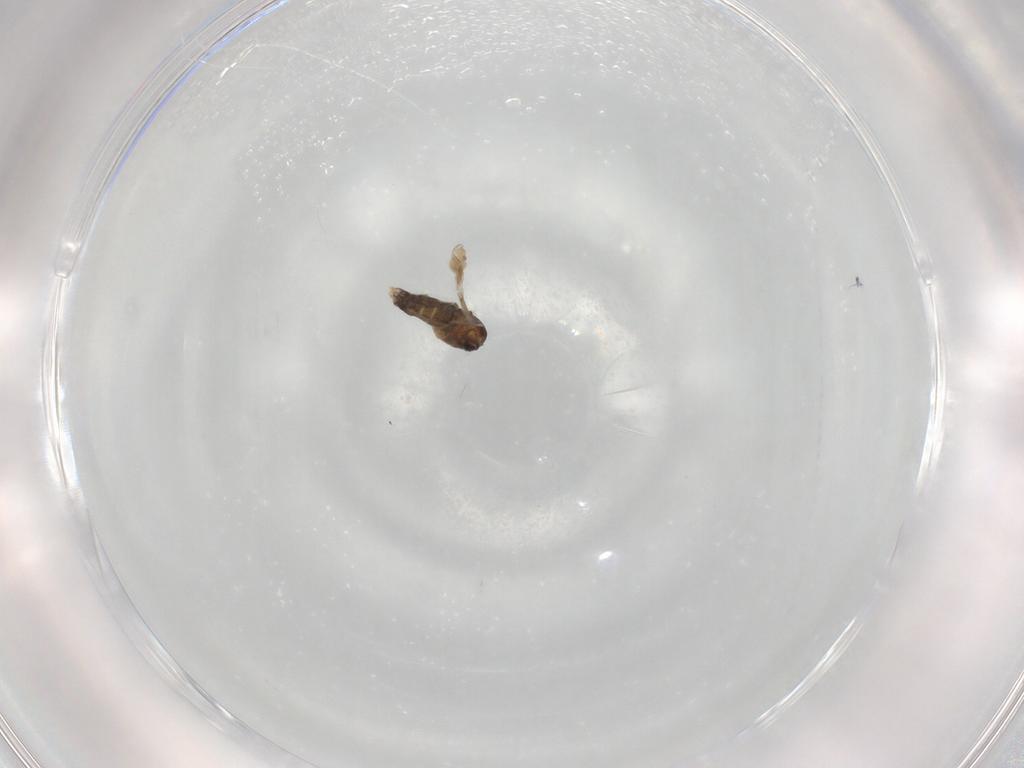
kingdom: Animalia
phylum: Arthropoda
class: Insecta
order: Diptera
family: Chironomidae
